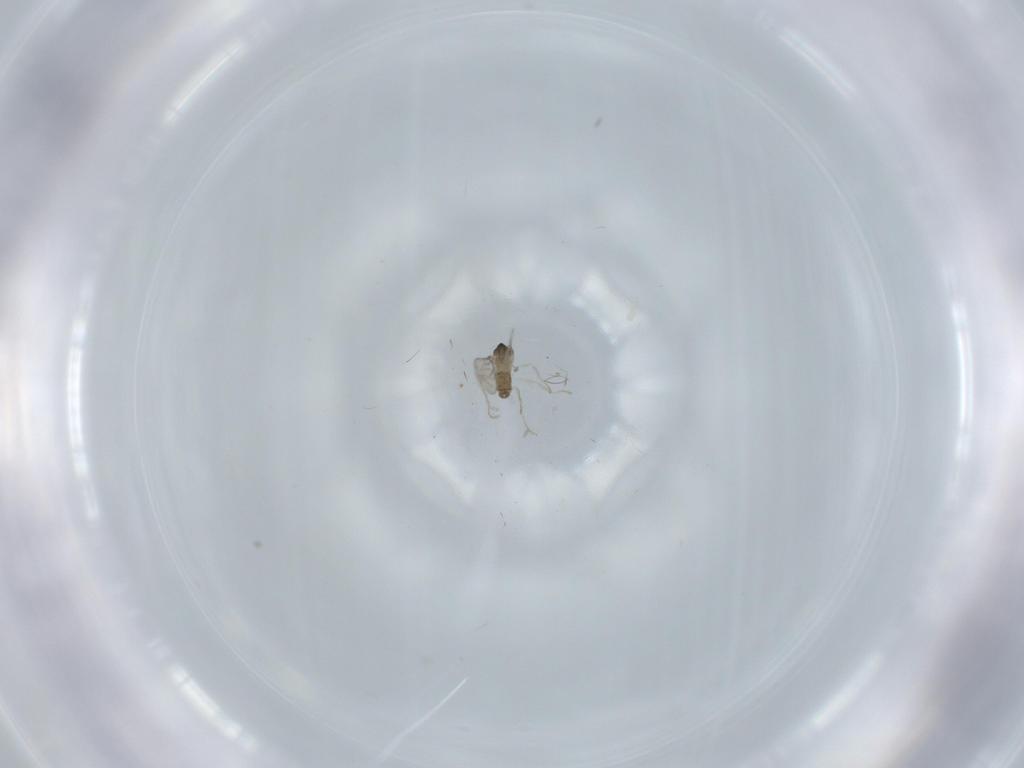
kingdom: Animalia
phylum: Arthropoda
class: Insecta
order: Diptera
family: Cecidomyiidae
